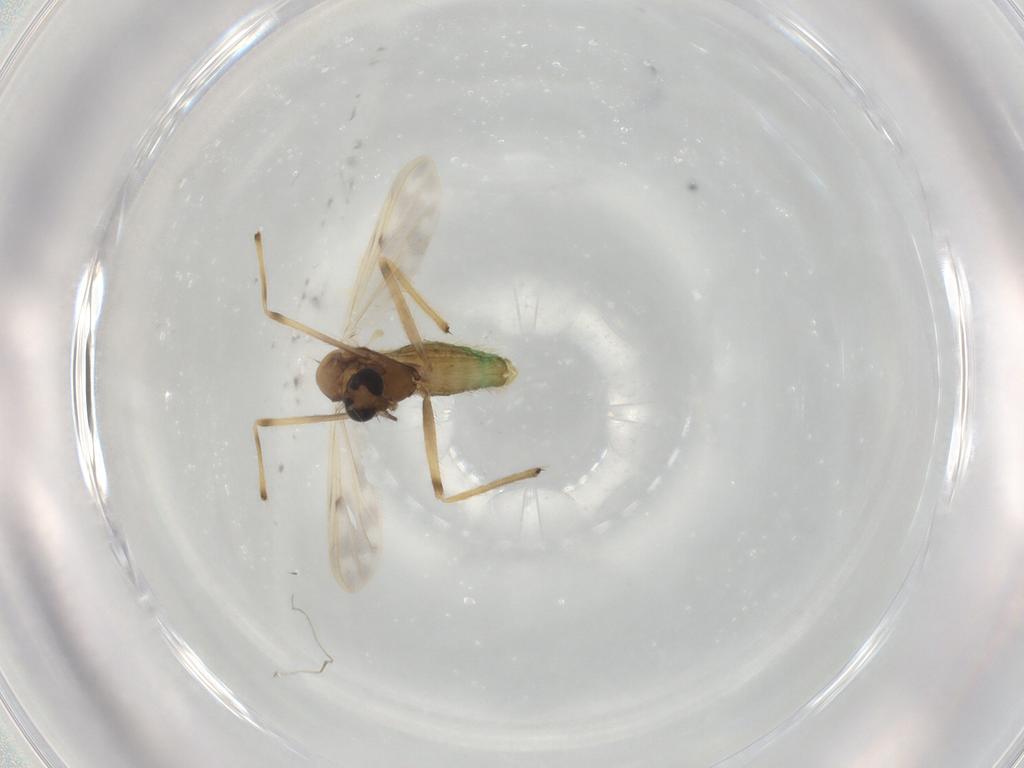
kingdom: Animalia
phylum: Arthropoda
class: Insecta
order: Diptera
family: Chironomidae
